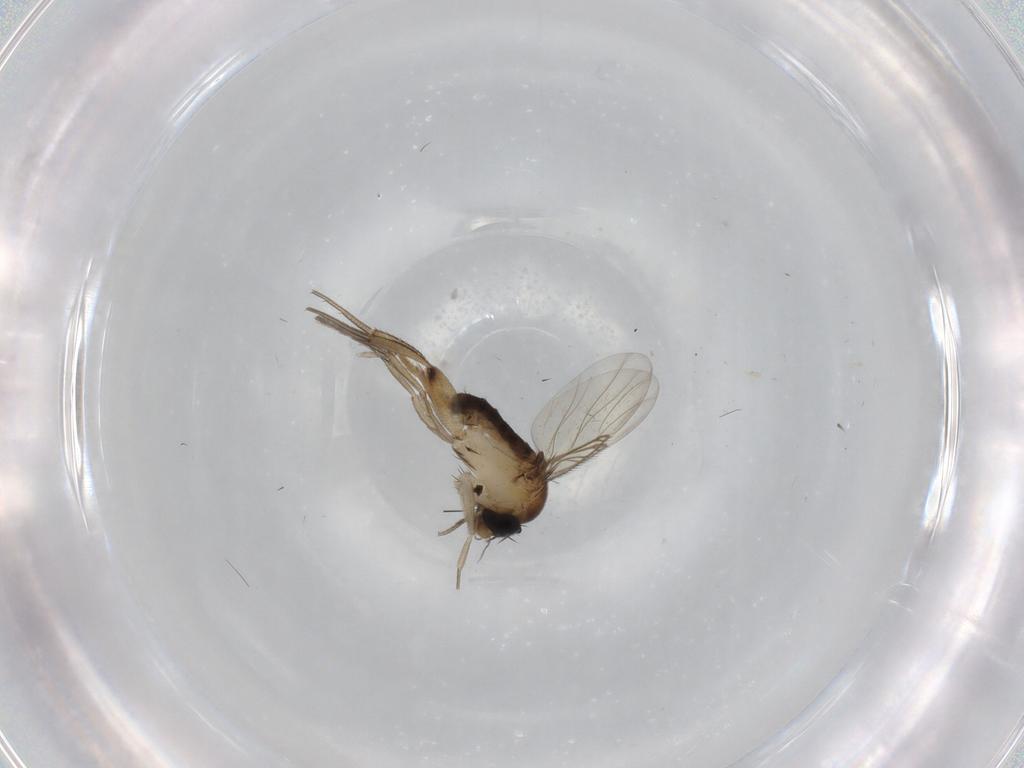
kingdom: Animalia
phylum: Arthropoda
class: Insecta
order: Diptera
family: Phoridae
